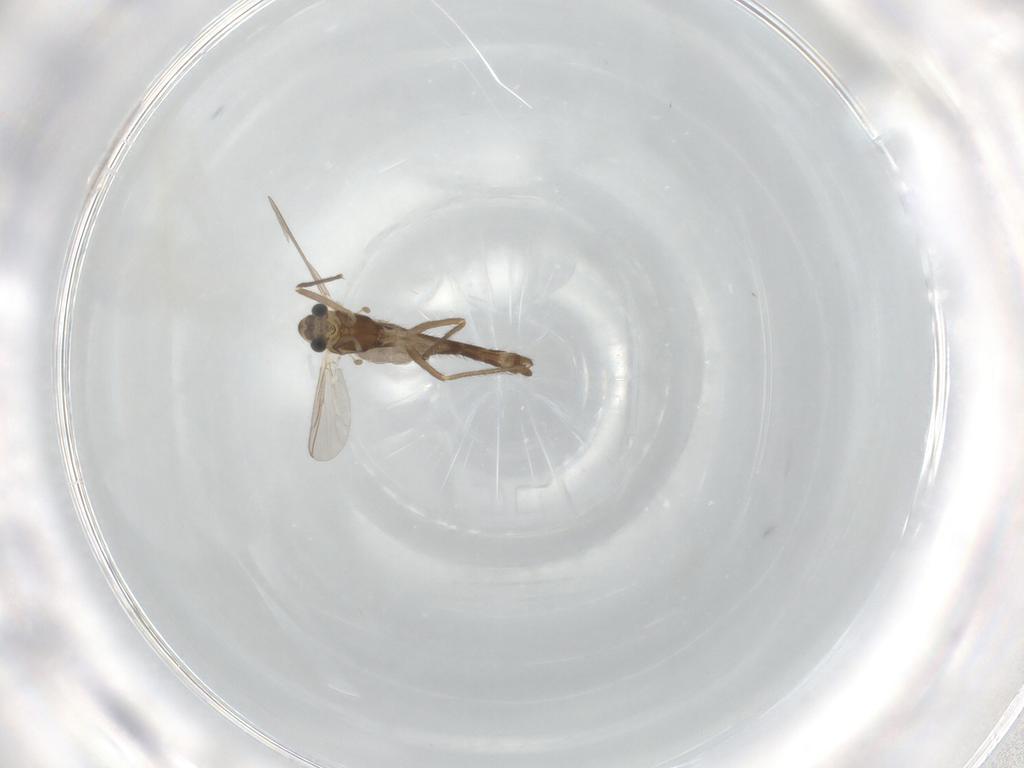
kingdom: Animalia
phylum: Arthropoda
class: Insecta
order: Diptera
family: Chironomidae
